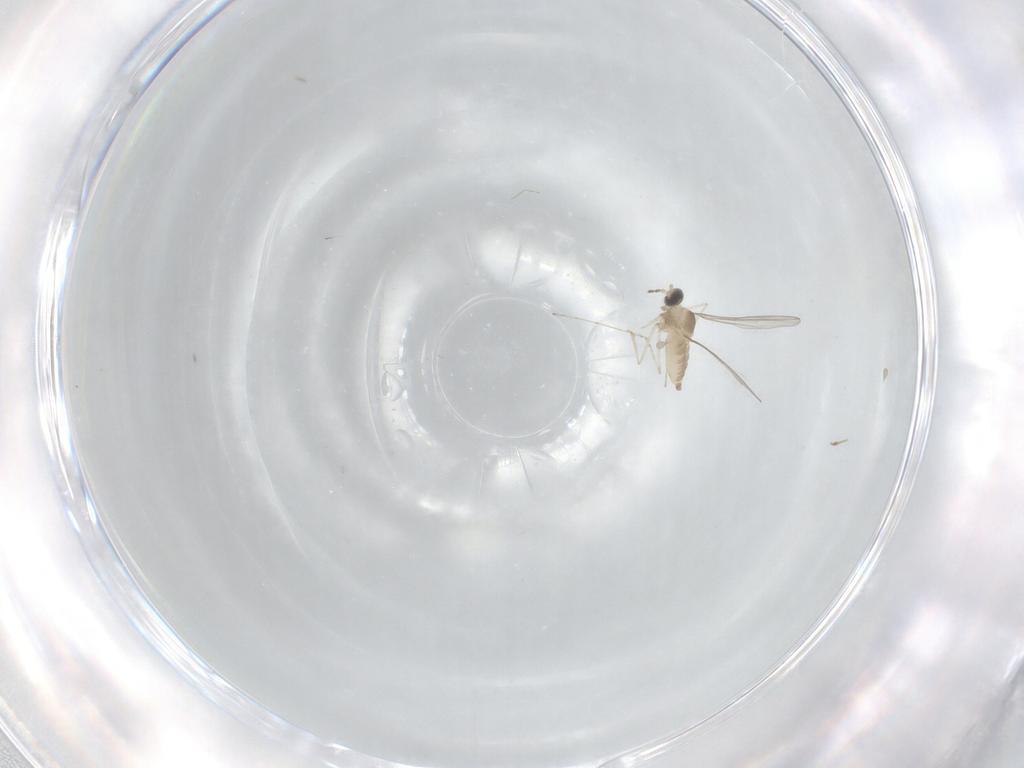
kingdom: Animalia
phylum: Arthropoda
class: Insecta
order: Diptera
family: Cecidomyiidae
